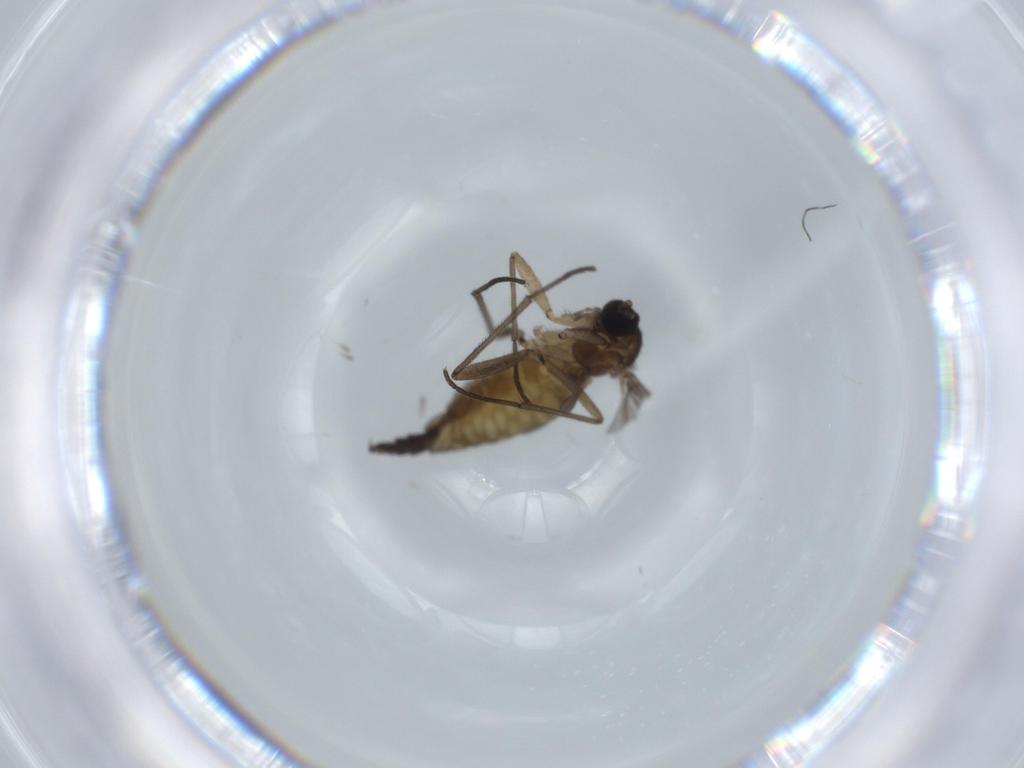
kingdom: Animalia
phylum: Arthropoda
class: Insecta
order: Diptera
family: Sciaridae
